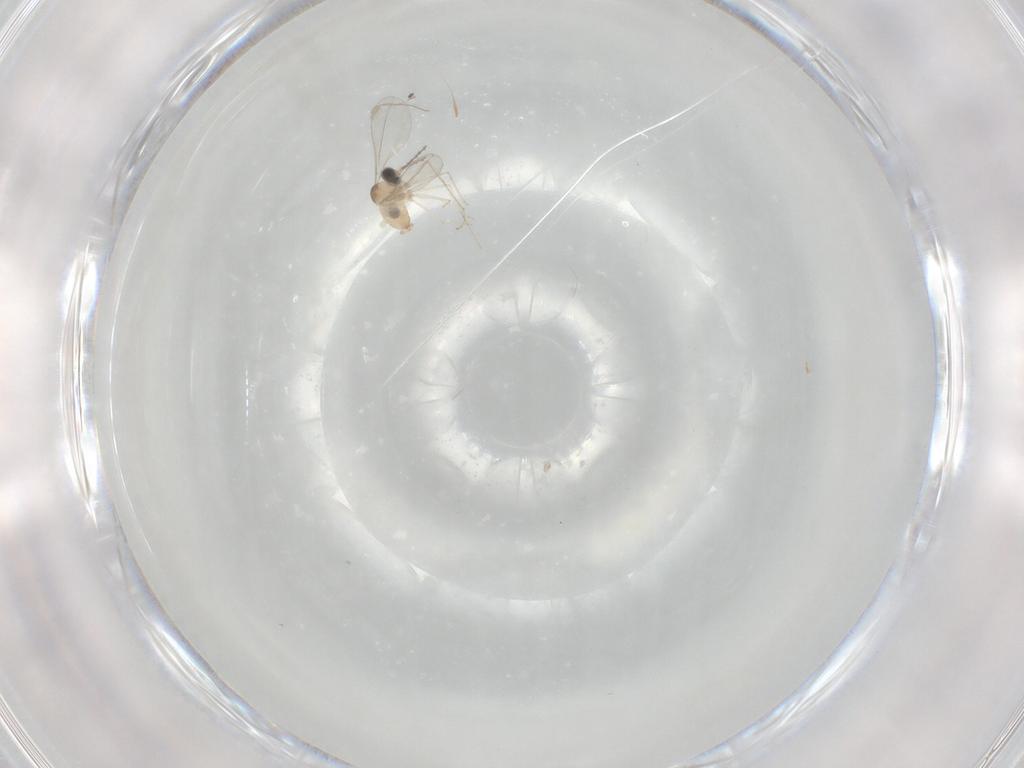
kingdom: Animalia
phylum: Arthropoda
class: Insecta
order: Diptera
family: Cecidomyiidae
